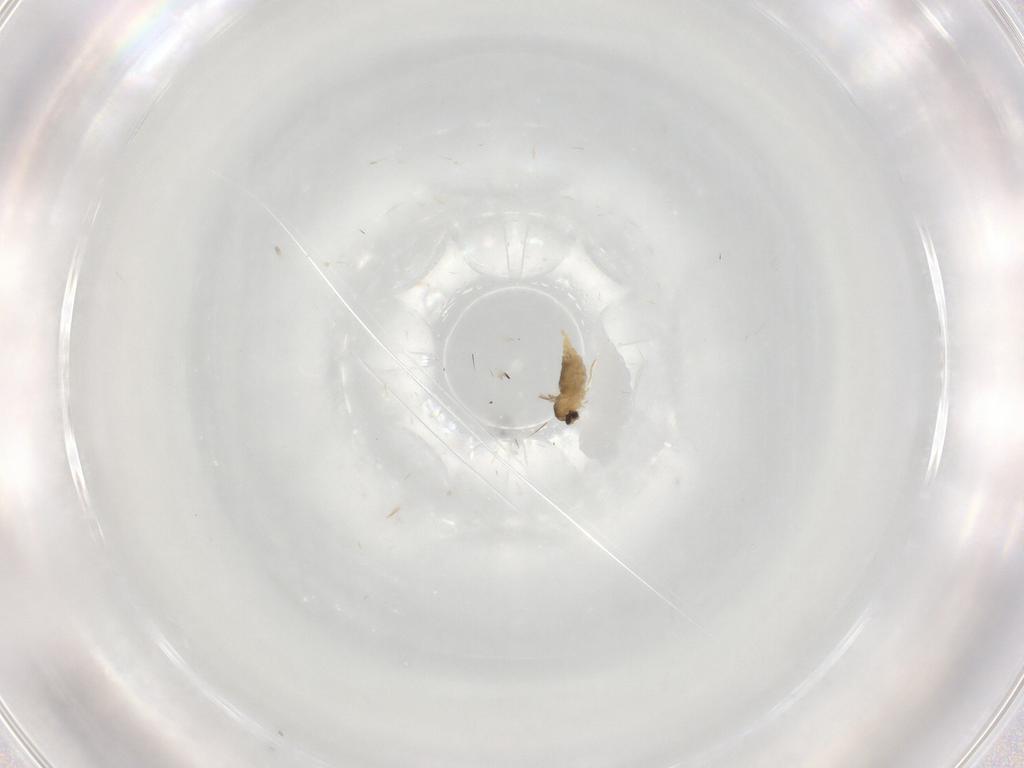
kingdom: Animalia
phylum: Arthropoda
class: Insecta
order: Diptera
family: Cecidomyiidae
